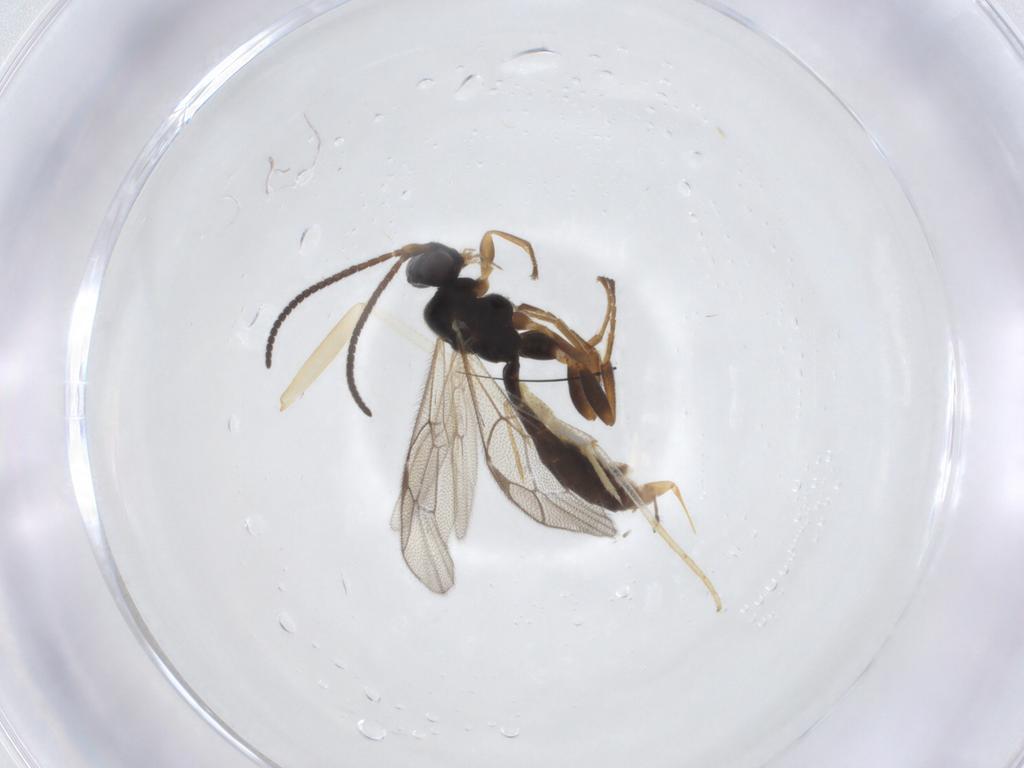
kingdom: Animalia
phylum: Arthropoda
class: Insecta
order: Hymenoptera
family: Ichneumonidae
